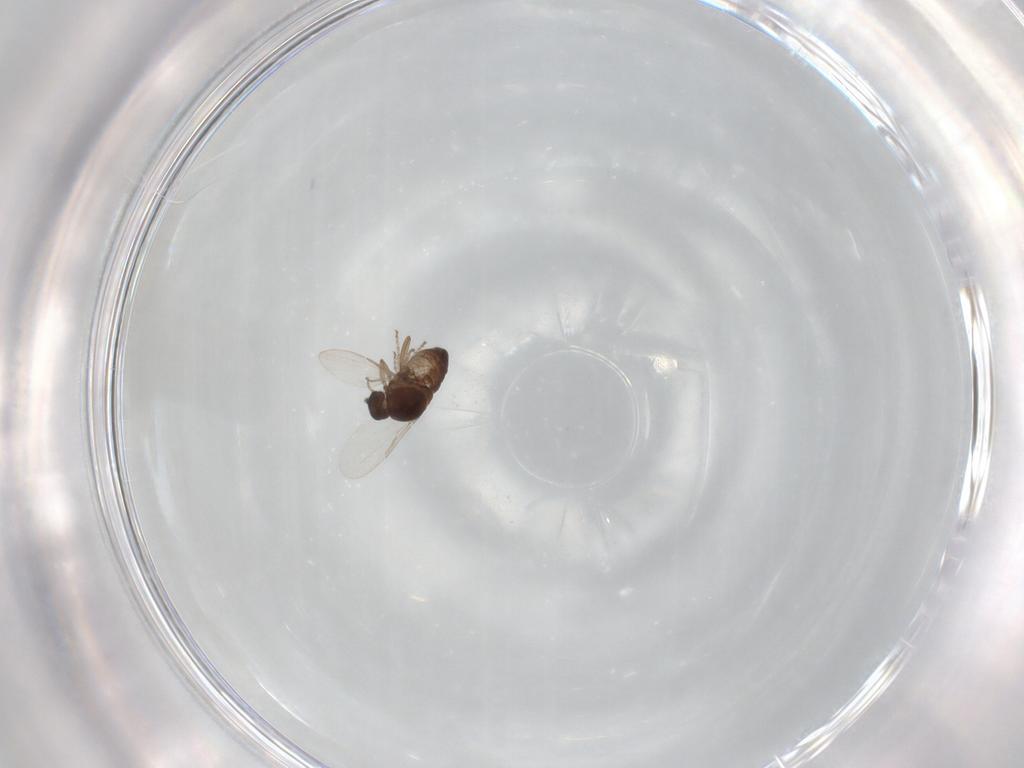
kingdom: Animalia
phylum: Arthropoda
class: Insecta
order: Diptera
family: Ceratopogonidae
